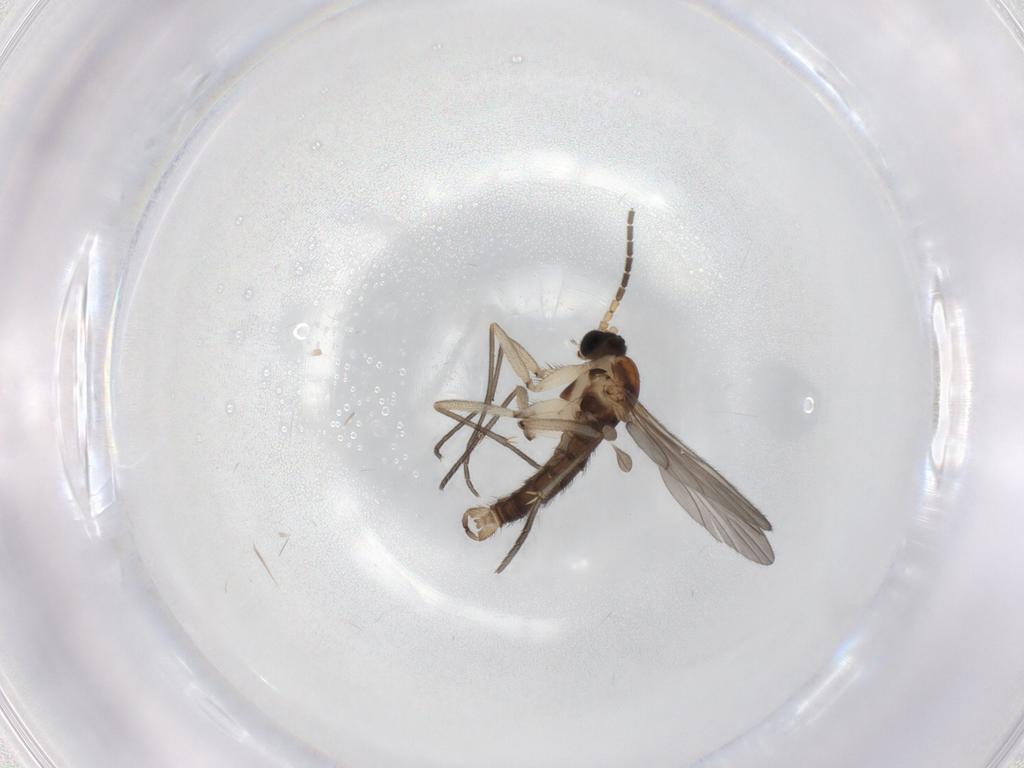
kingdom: Animalia
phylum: Arthropoda
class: Insecta
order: Diptera
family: Sciaridae
